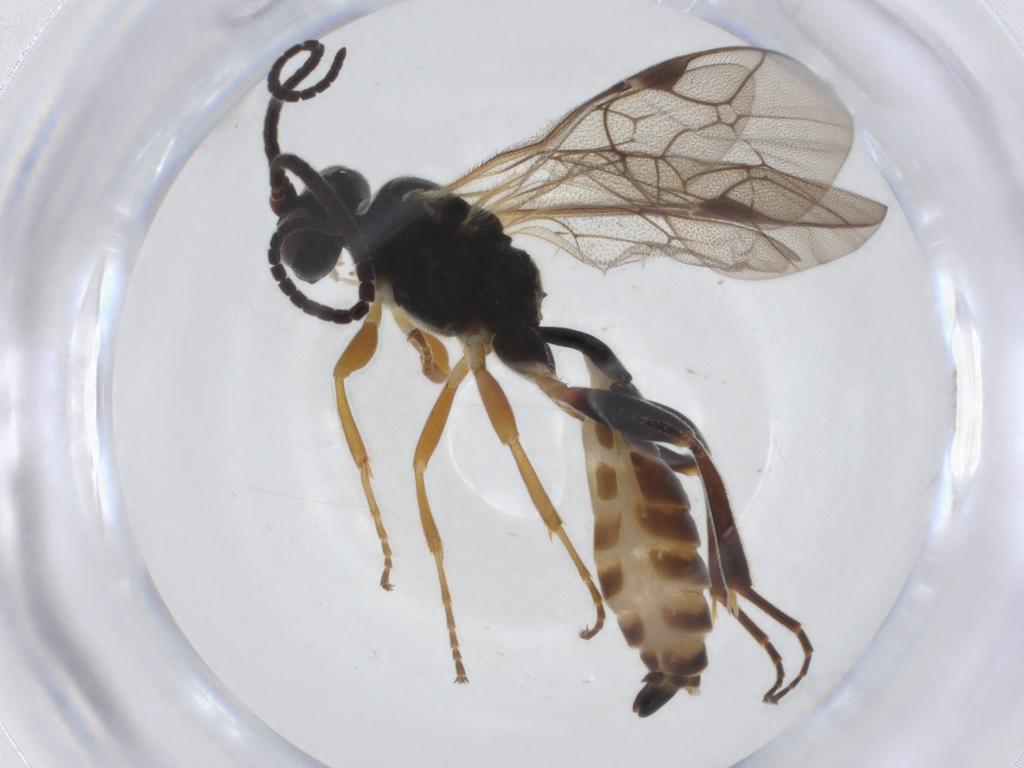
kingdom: Animalia
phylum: Arthropoda
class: Insecta
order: Hymenoptera
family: Ichneumonidae
